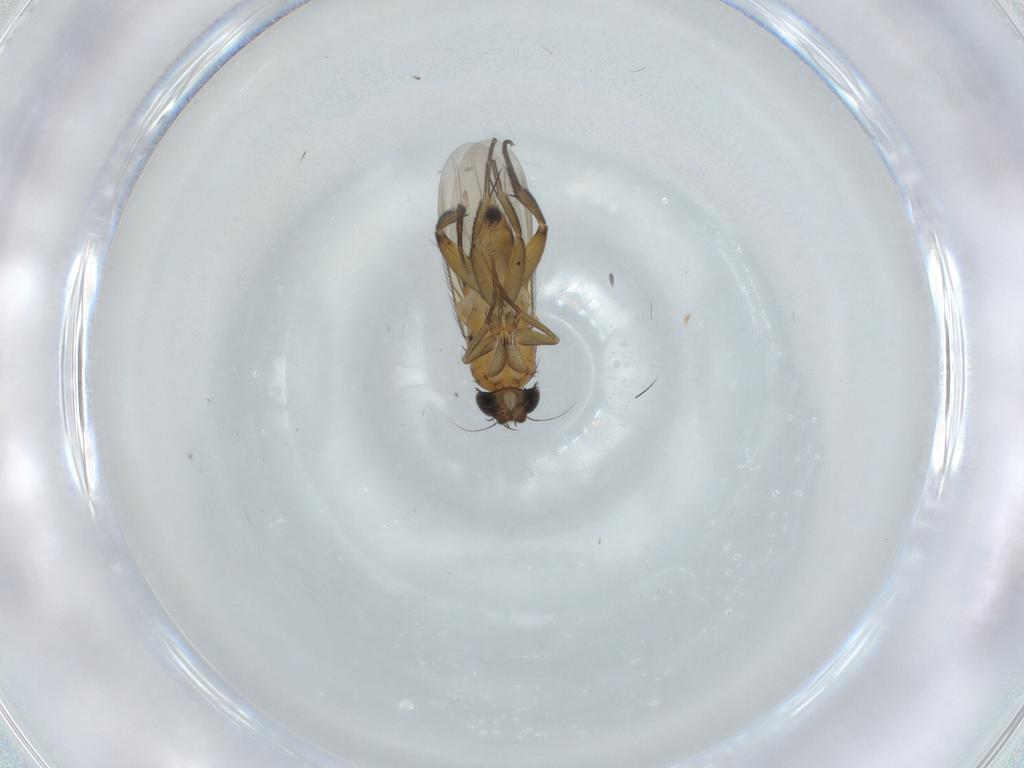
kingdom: Animalia
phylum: Arthropoda
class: Insecta
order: Diptera
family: Phoridae
